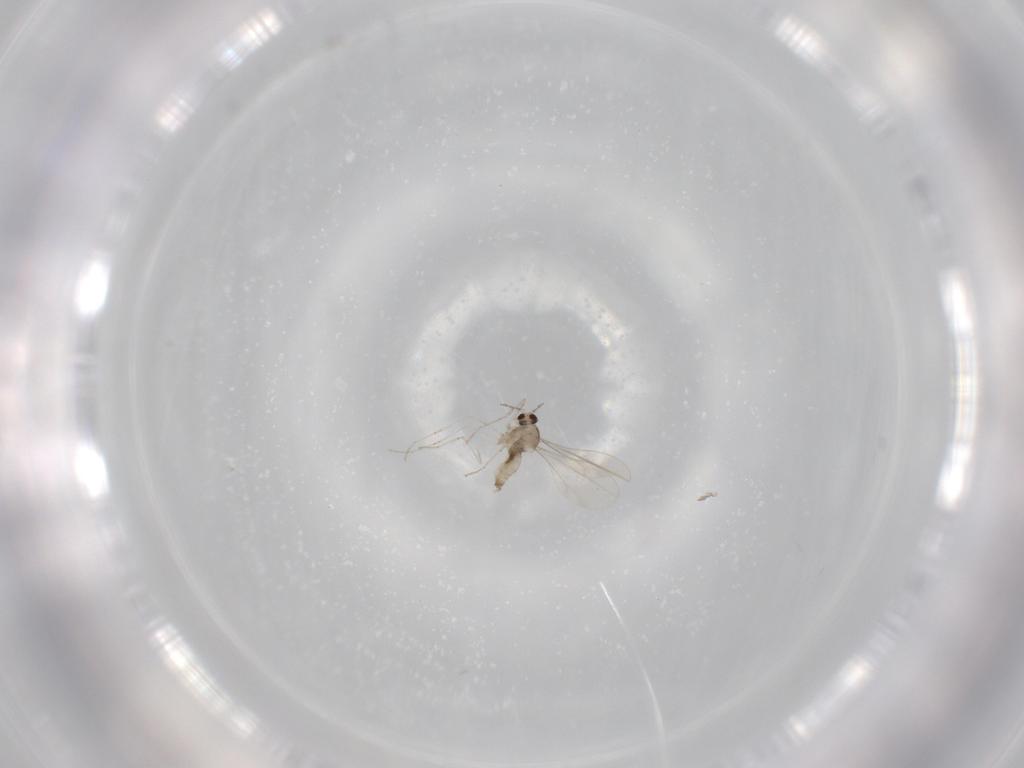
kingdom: Animalia
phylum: Arthropoda
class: Insecta
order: Diptera
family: Cecidomyiidae
